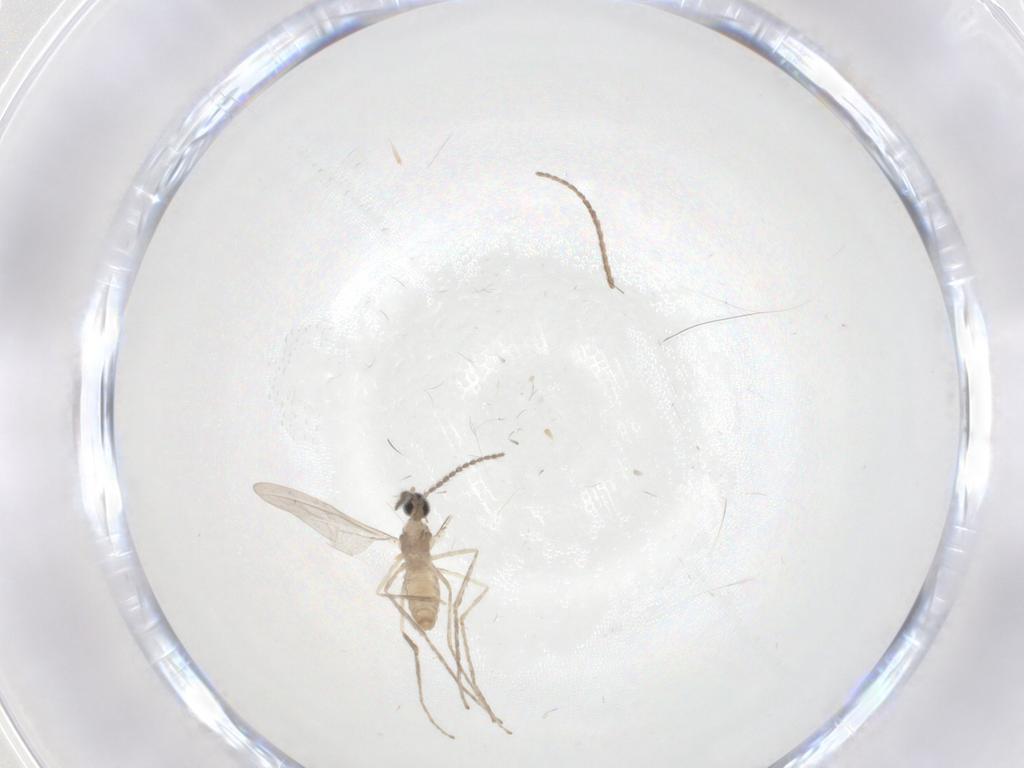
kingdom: Animalia
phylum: Arthropoda
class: Insecta
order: Diptera
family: Cecidomyiidae
